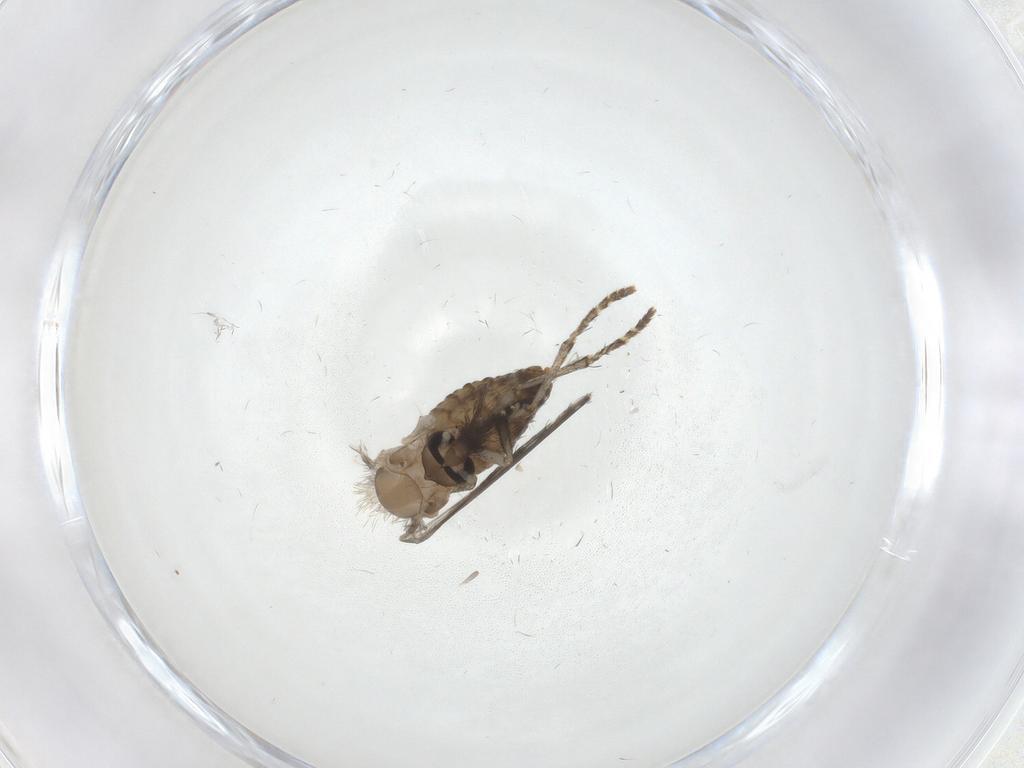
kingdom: Animalia
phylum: Arthropoda
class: Insecta
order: Diptera
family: Psychodidae
